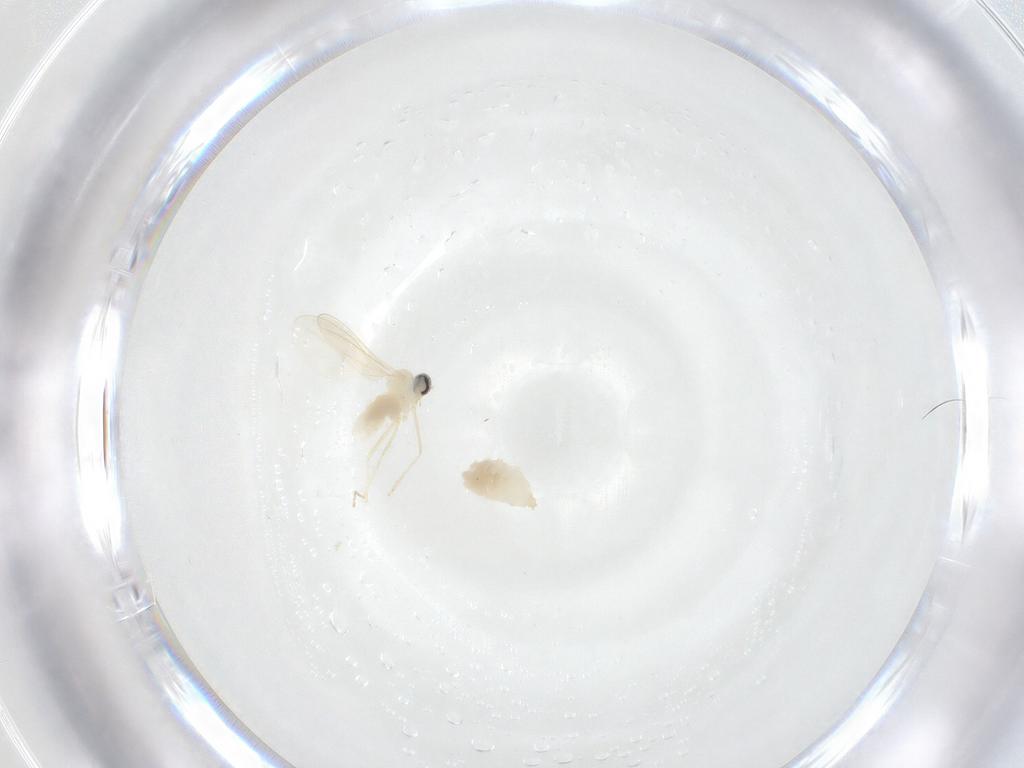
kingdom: Animalia
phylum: Arthropoda
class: Insecta
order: Diptera
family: Cecidomyiidae
